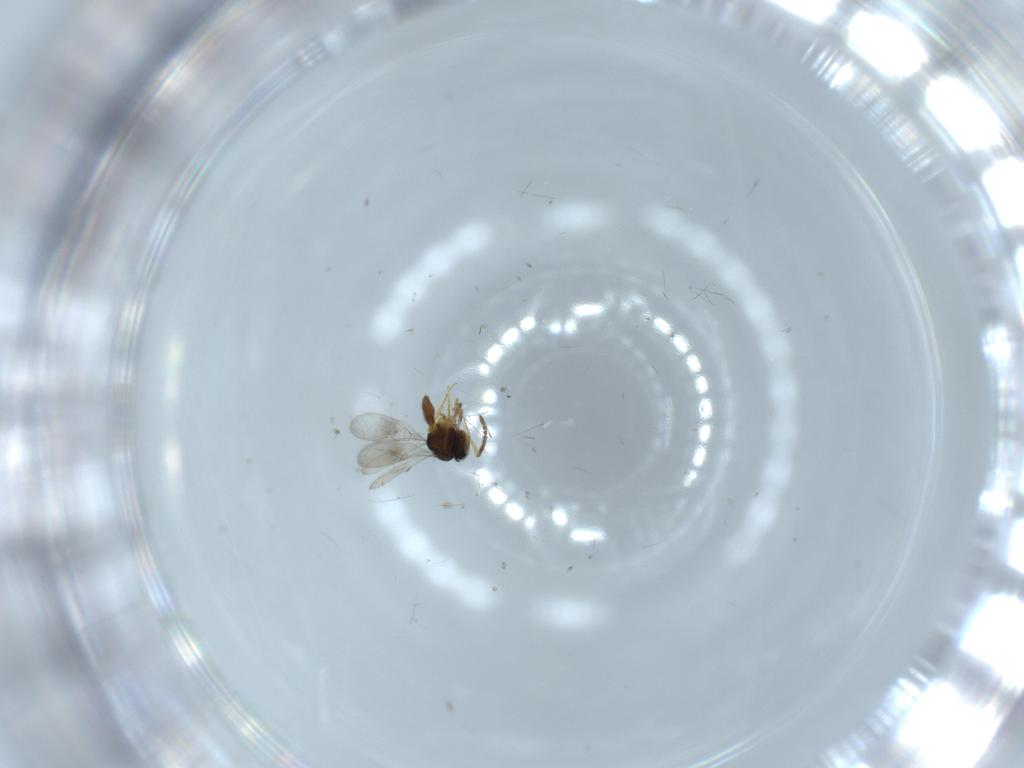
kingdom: Animalia
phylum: Arthropoda
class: Insecta
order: Hymenoptera
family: Scelionidae
